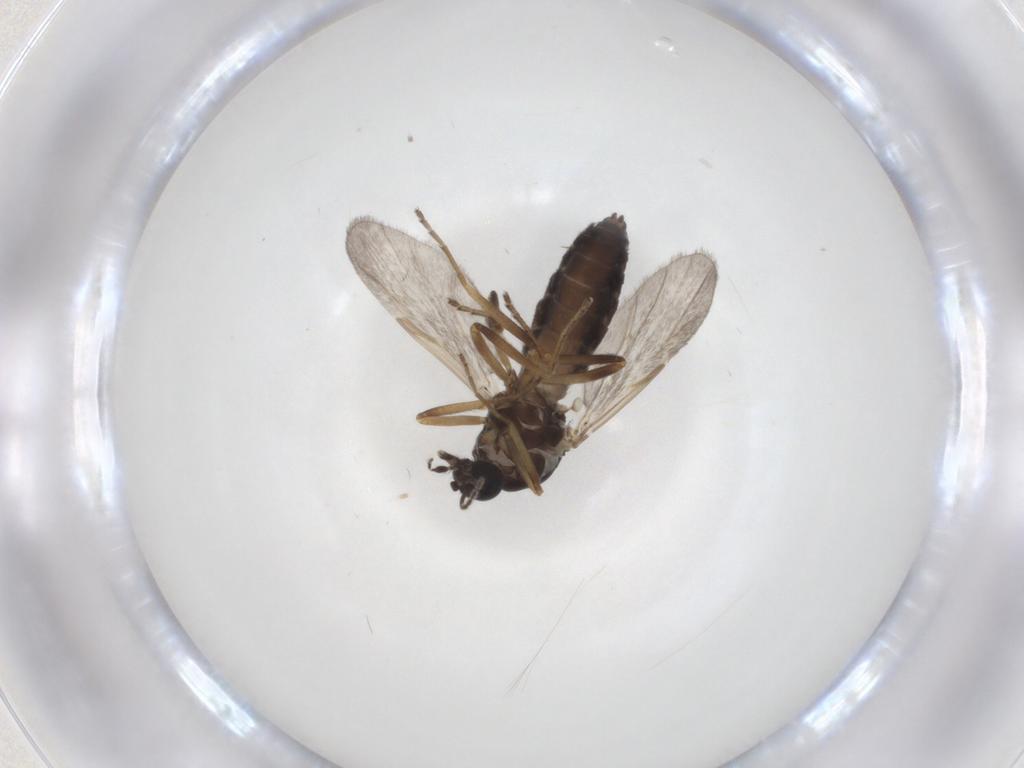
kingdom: Animalia
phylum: Arthropoda
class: Insecta
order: Diptera
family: Ceratopogonidae
